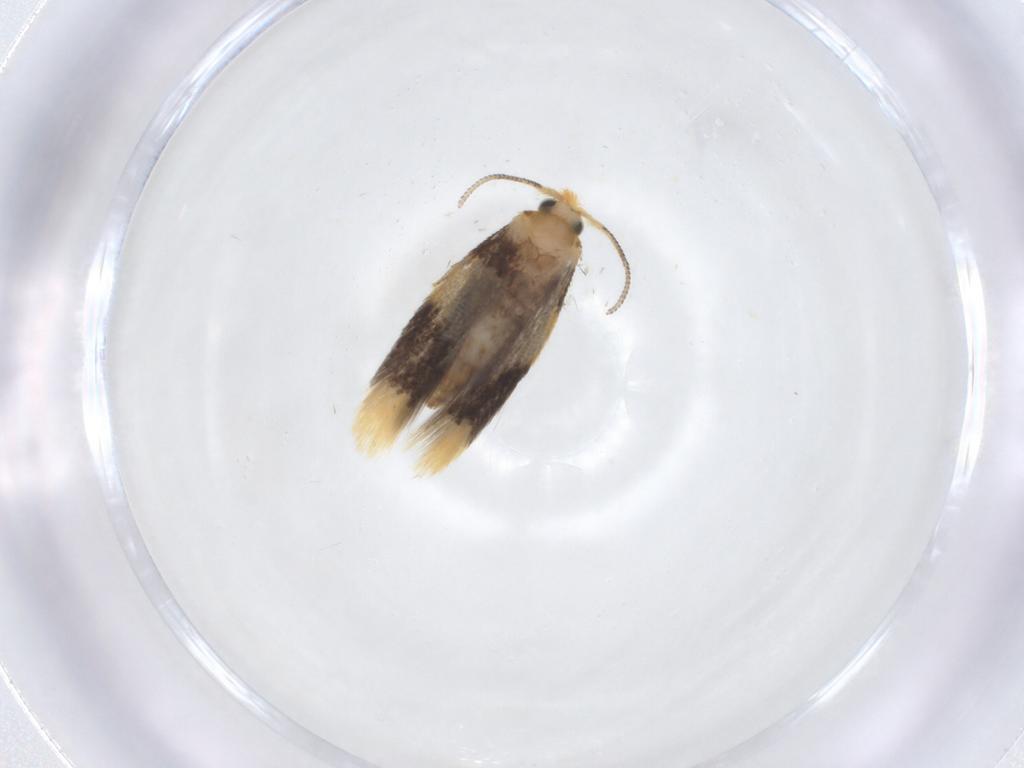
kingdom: Animalia
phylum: Arthropoda
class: Insecta
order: Lepidoptera
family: Nepticulidae
